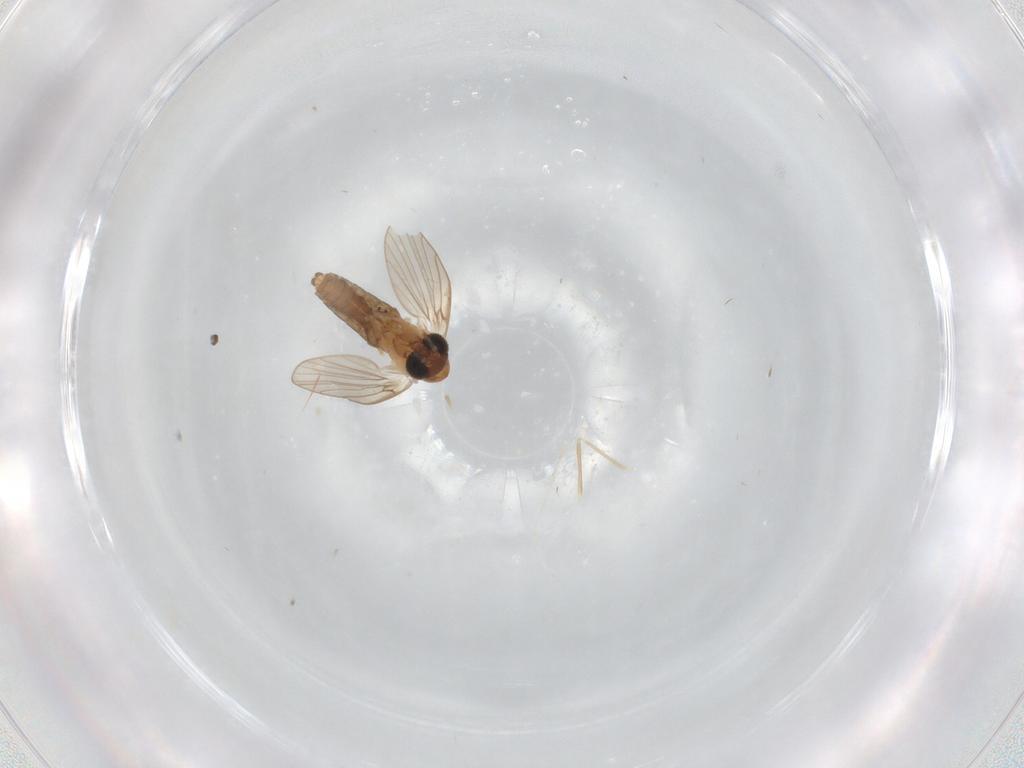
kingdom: Animalia
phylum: Arthropoda
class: Insecta
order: Diptera
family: Cecidomyiidae
